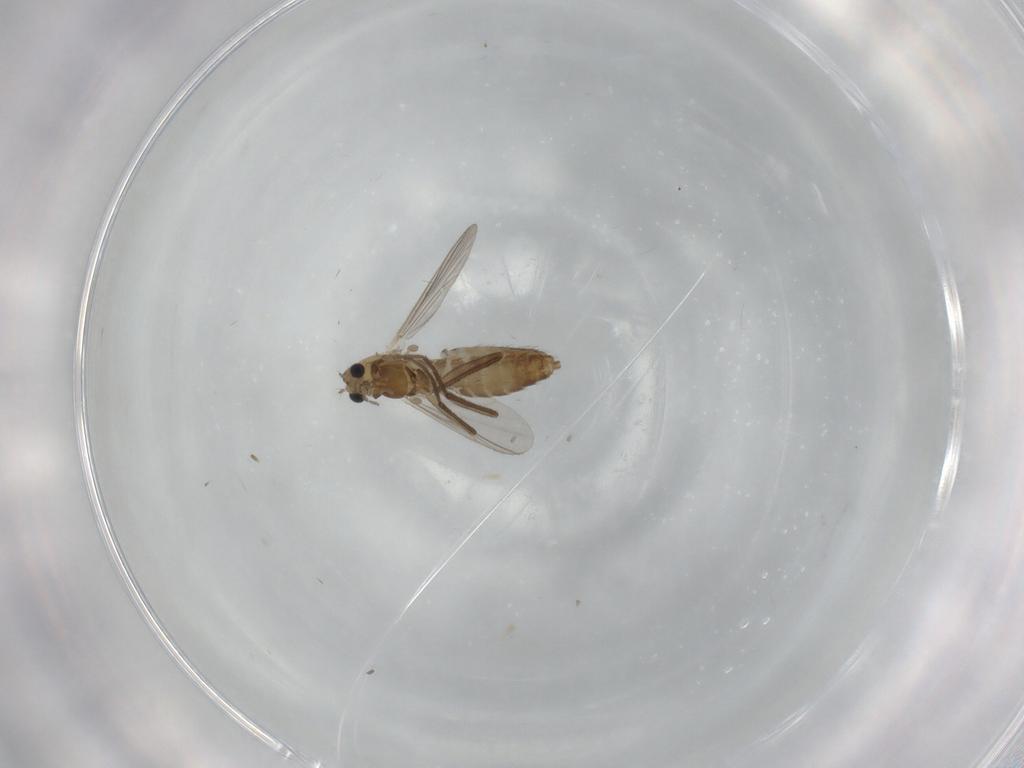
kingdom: Animalia
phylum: Arthropoda
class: Insecta
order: Diptera
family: Chironomidae
